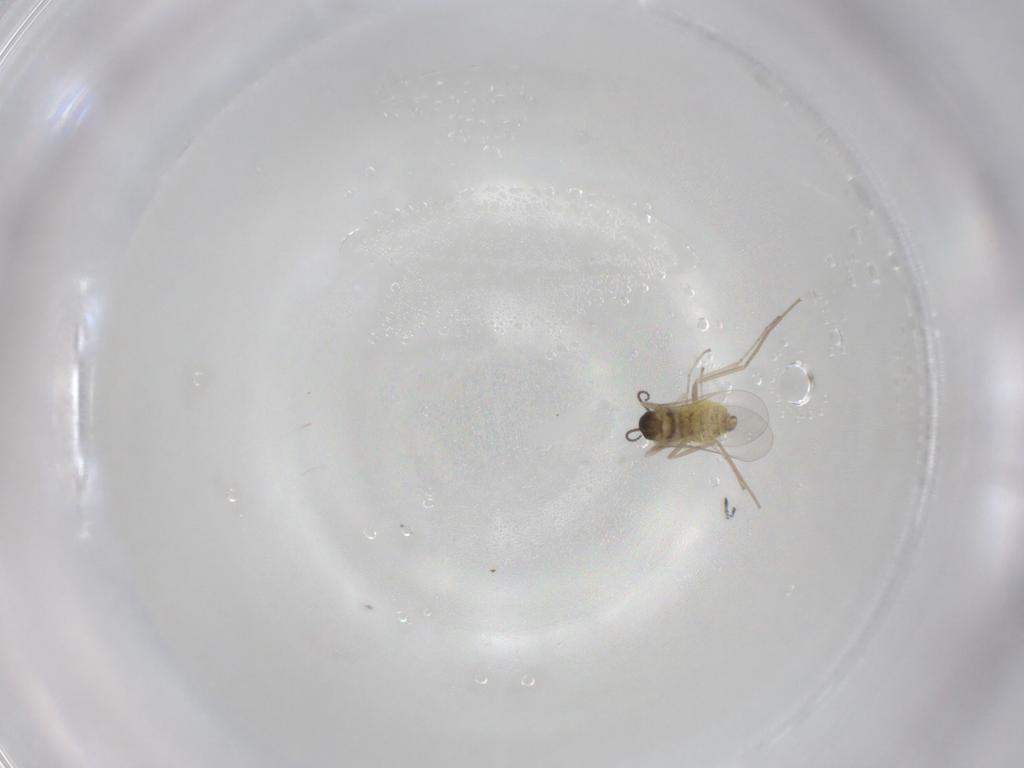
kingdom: Animalia
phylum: Arthropoda
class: Insecta
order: Diptera
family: Cecidomyiidae
